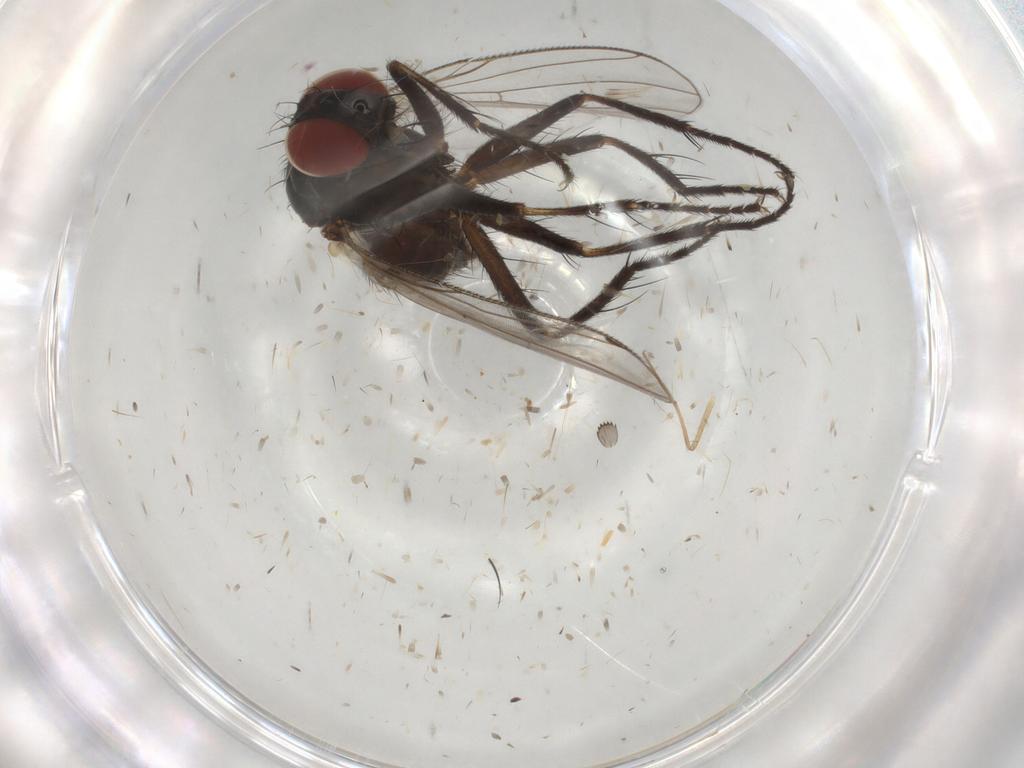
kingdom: Animalia
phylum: Arthropoda
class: Insecta
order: Diptera
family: Muscidae
